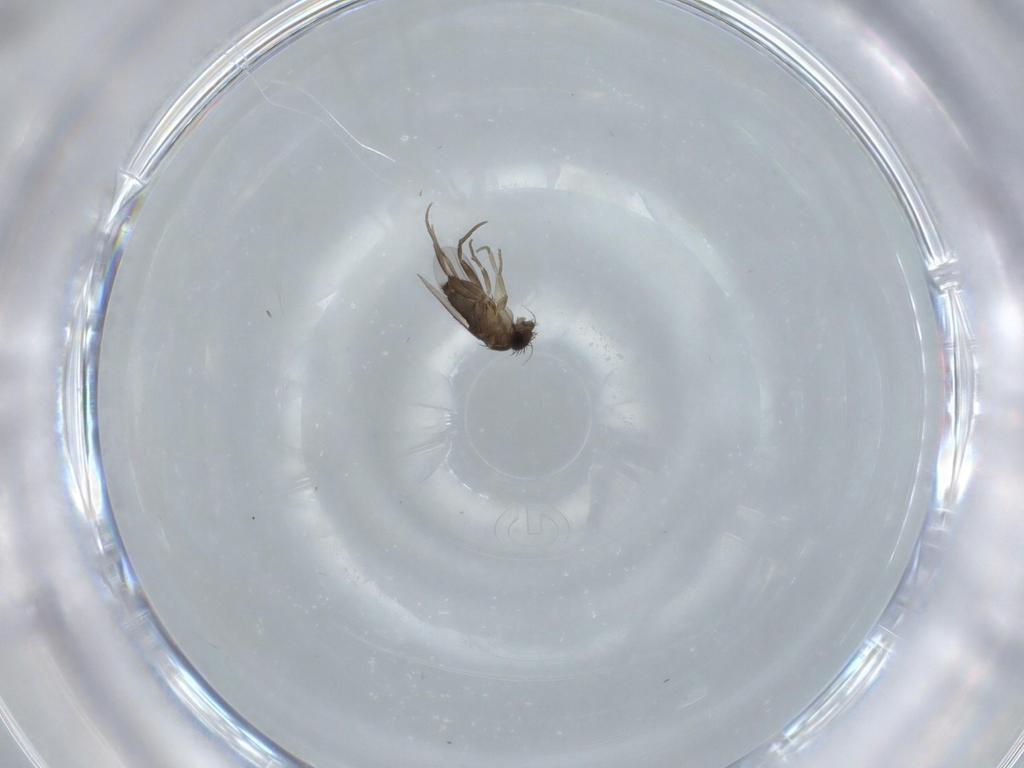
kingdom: Animalia
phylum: Arthropoda
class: Insecta
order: Diptera
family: Phoridae
